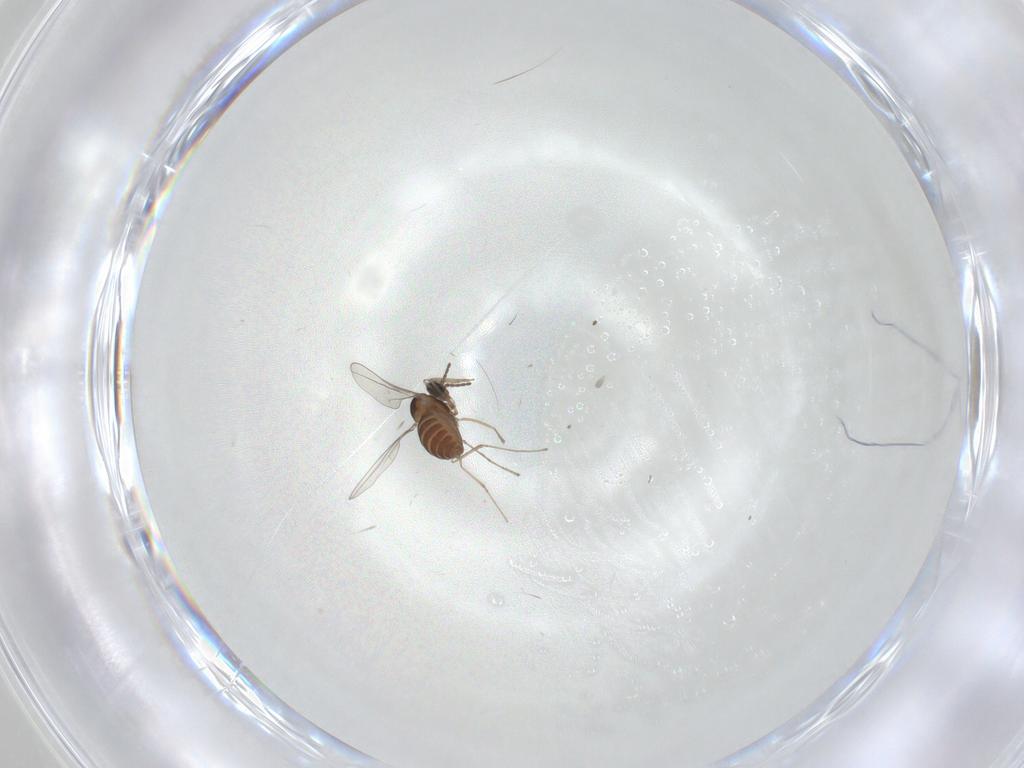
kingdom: Animalia
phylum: Arthropoda
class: Insecta
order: Diptera
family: Cecidomyiidae
